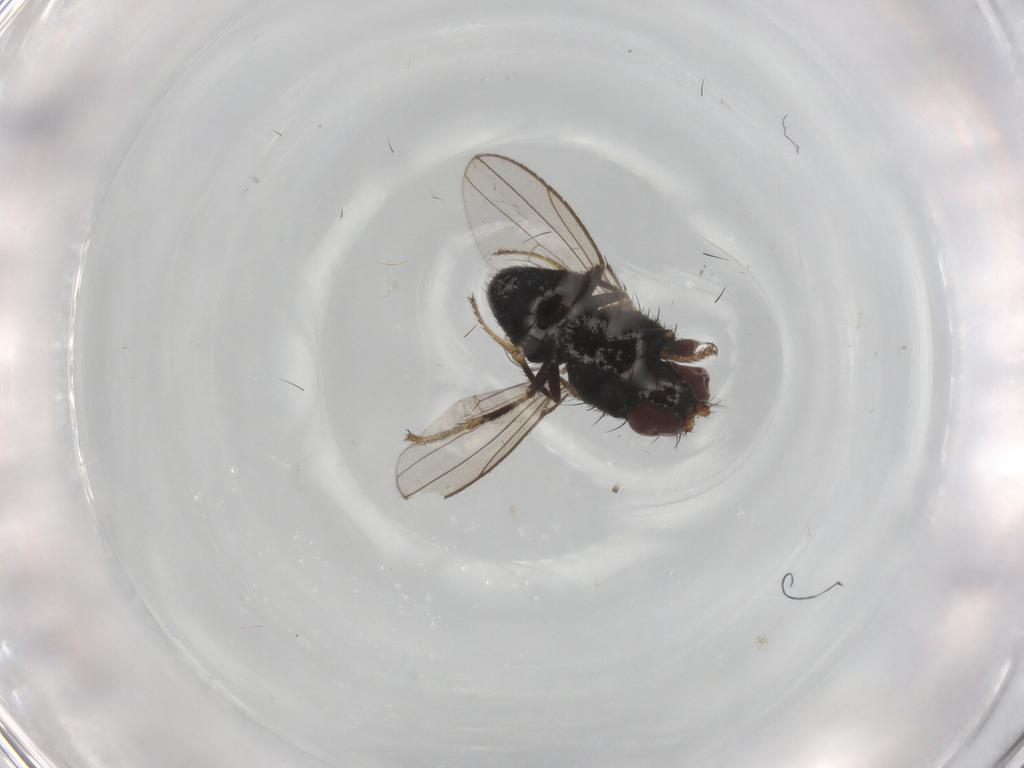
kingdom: Animalia
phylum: Arthropoda
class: Insecta
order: Diptera
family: Ephydridae
